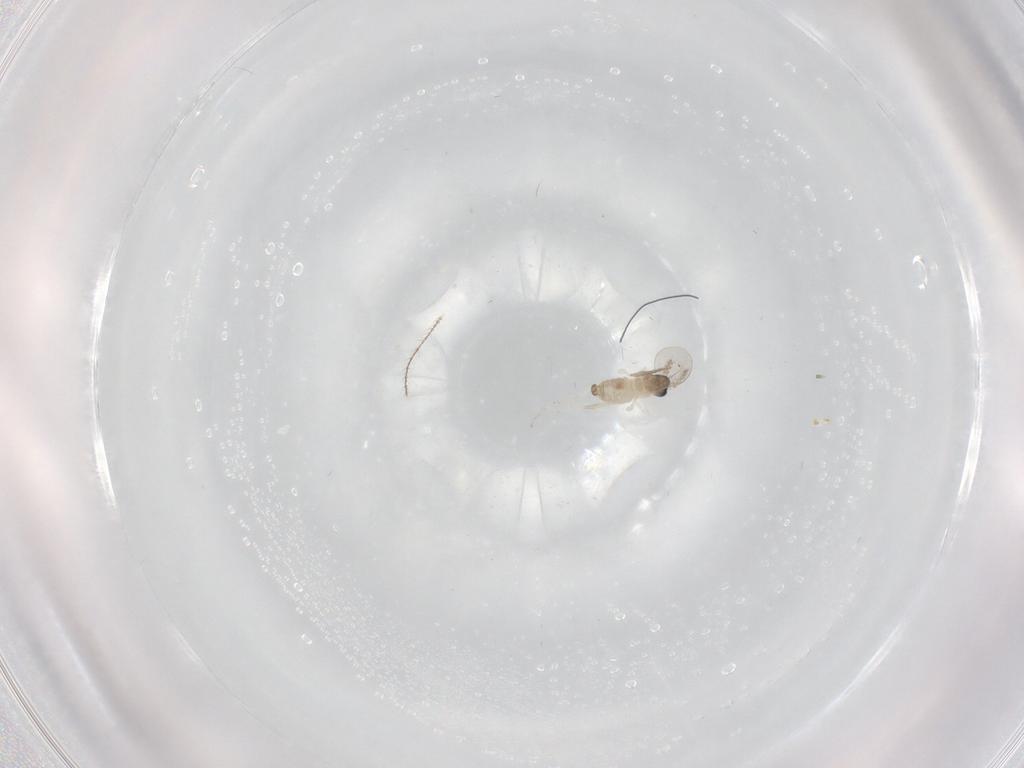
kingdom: Animalia
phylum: Arthropoda
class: Insecta
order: Diptera
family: Cecidomyiidae
